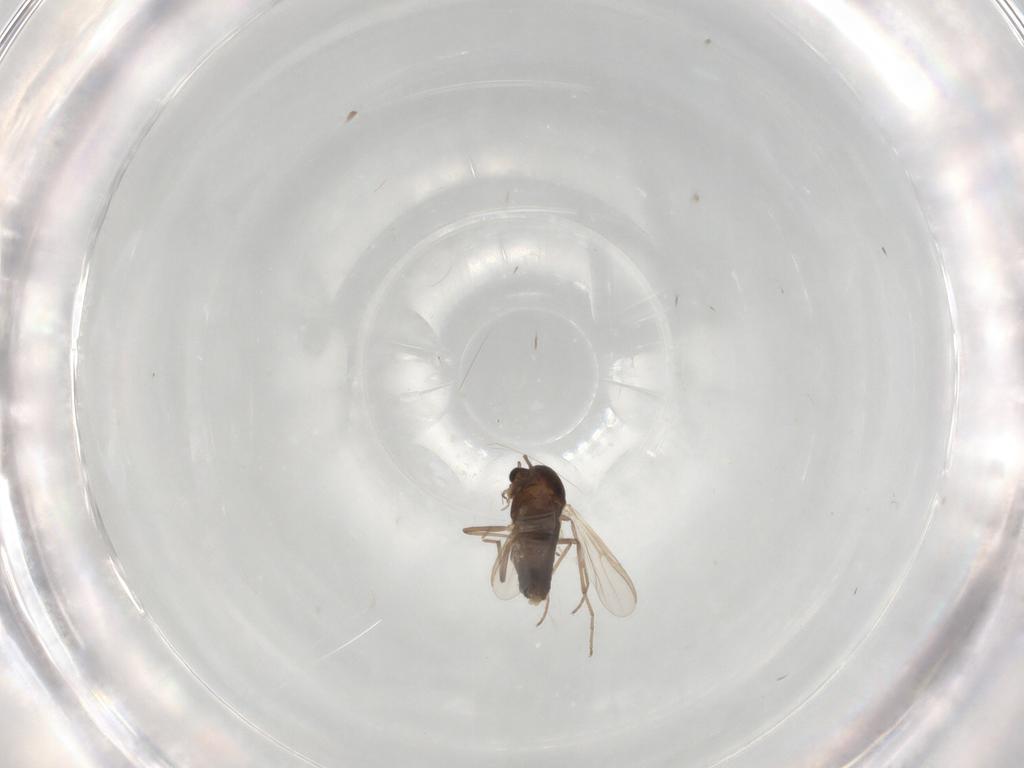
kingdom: Animalia
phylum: Arthropoda
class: Insecta
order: Diptera
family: Chironomidae
